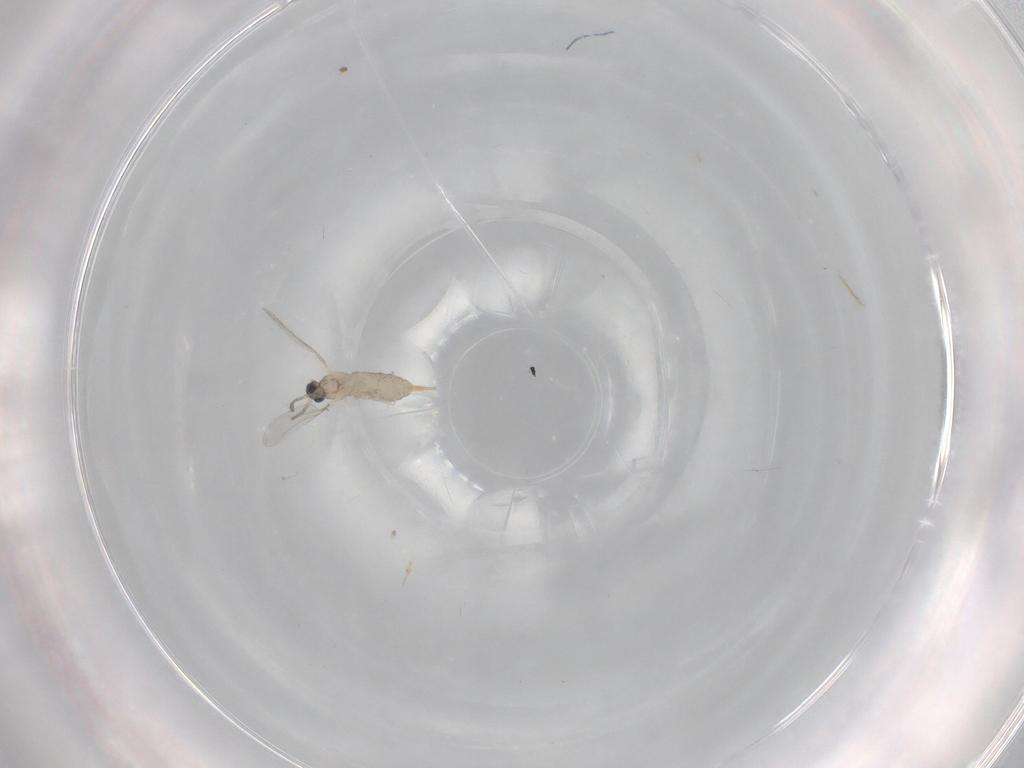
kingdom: Animalia
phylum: Arthropoda
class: Insecta
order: Diptera
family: Cecidomyiidae
